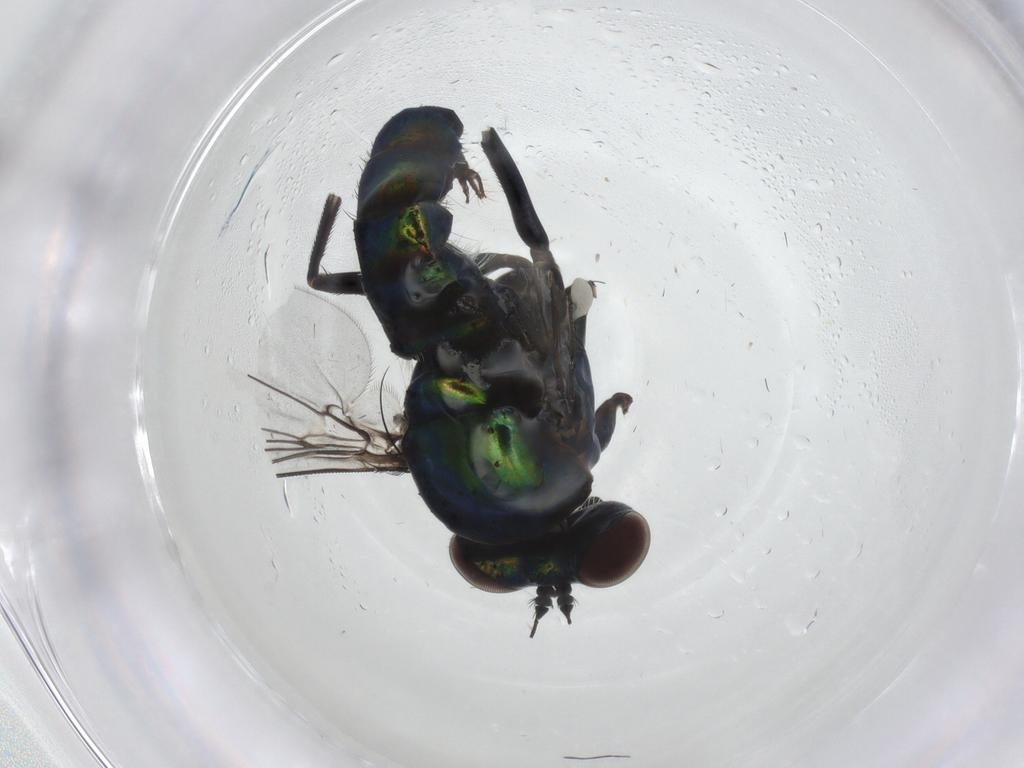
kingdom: Animalia
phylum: Arthropoda
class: Insecta
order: Diptera
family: Dolichopodidae
